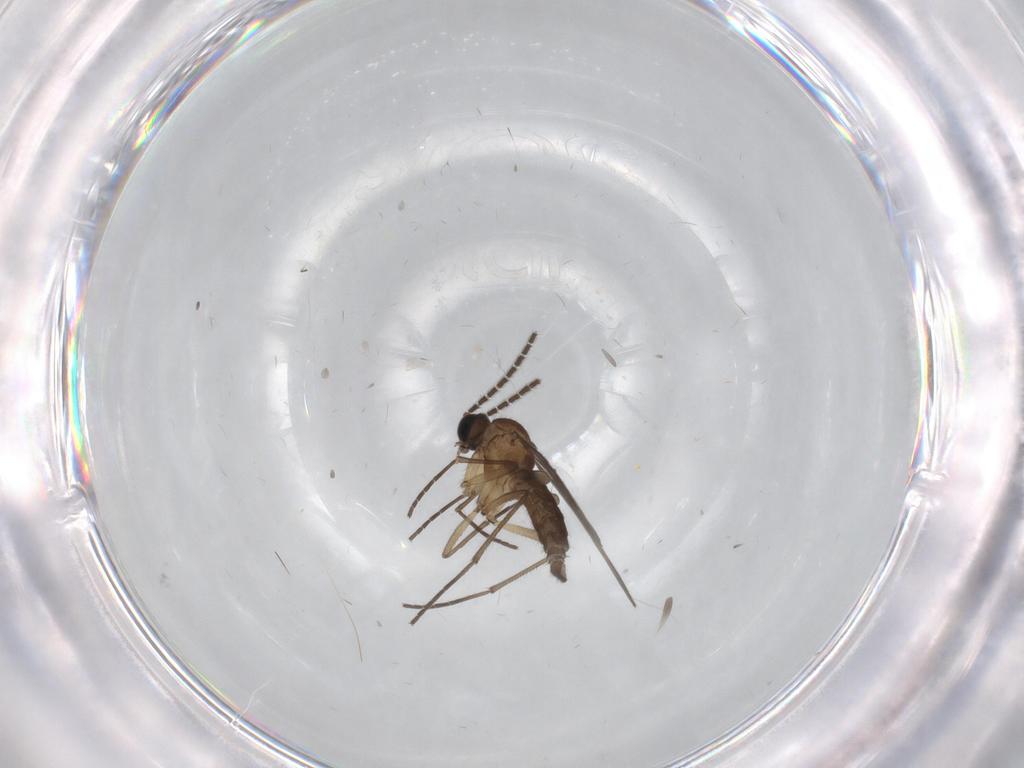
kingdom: Animalia
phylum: Arthropoda
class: Insecta
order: Diptera
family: Sciaridae
